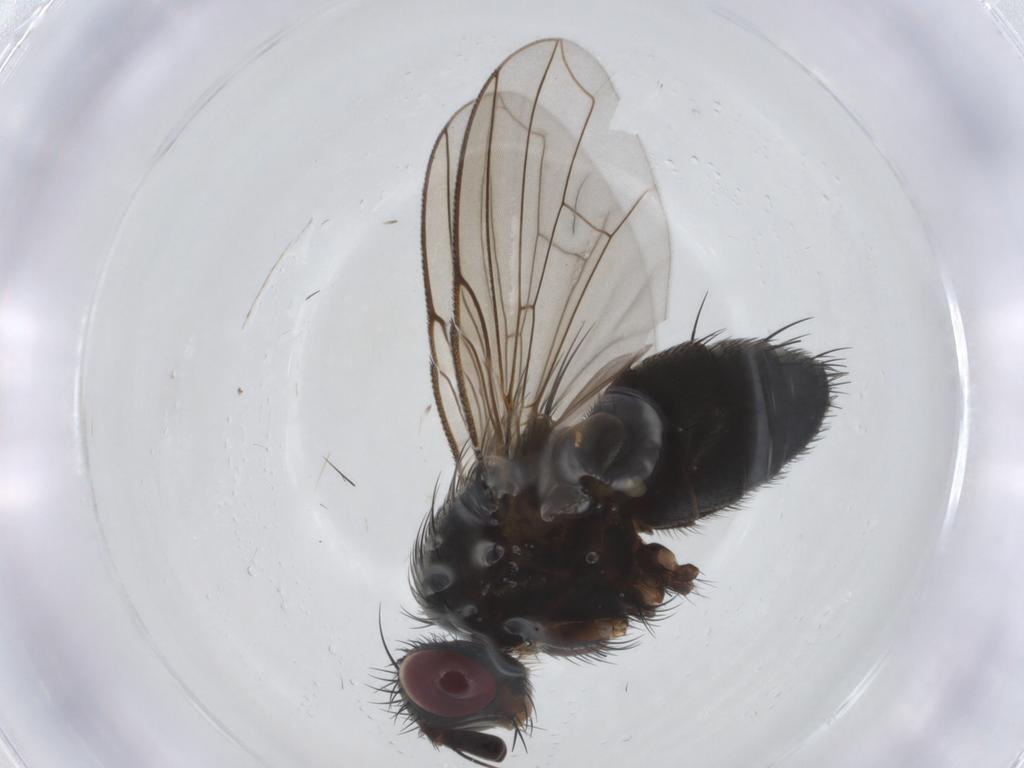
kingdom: Animalia
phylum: Arthropoda
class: Insecta
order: Diptera
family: Tachinidae
